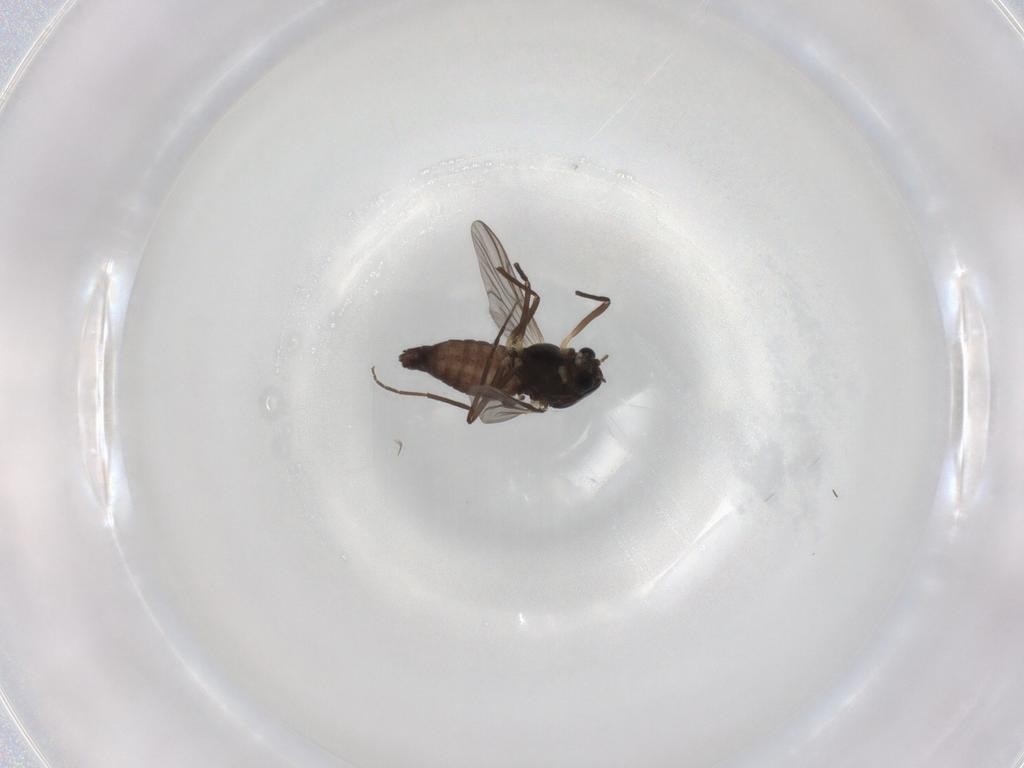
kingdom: Animalia
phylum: Arthropoda
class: Insecta
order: Diptera
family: Chironomidae
